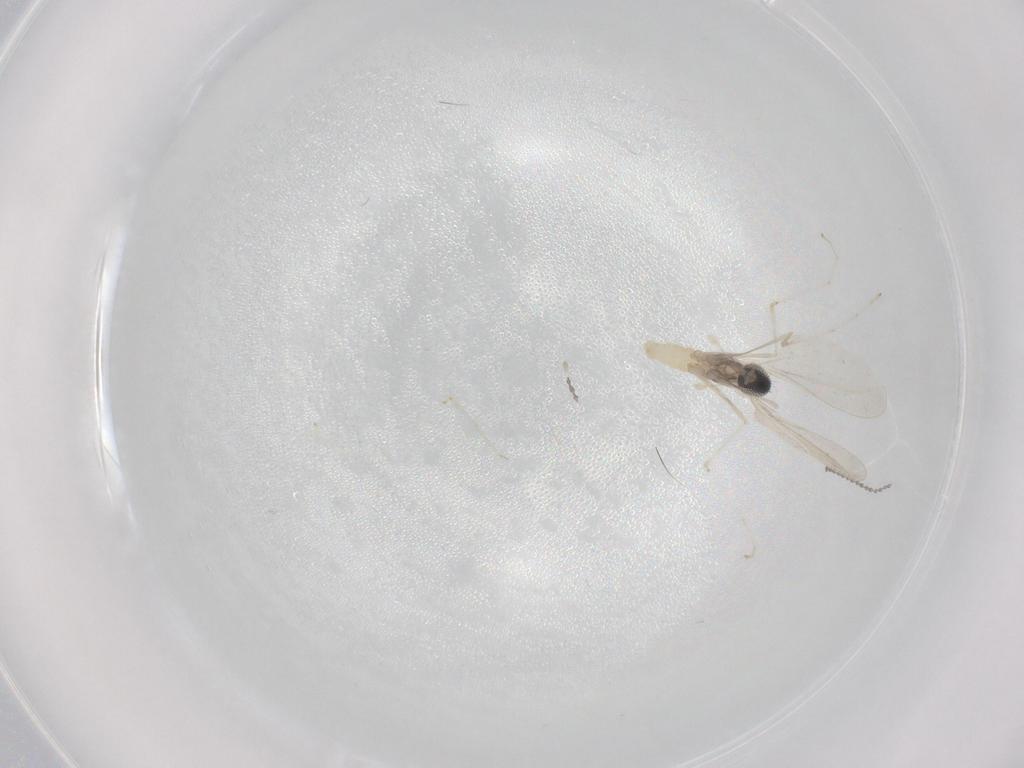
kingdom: Animalia
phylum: Arthropoda
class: Insecta
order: Diptera
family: Cecidomyiidae
